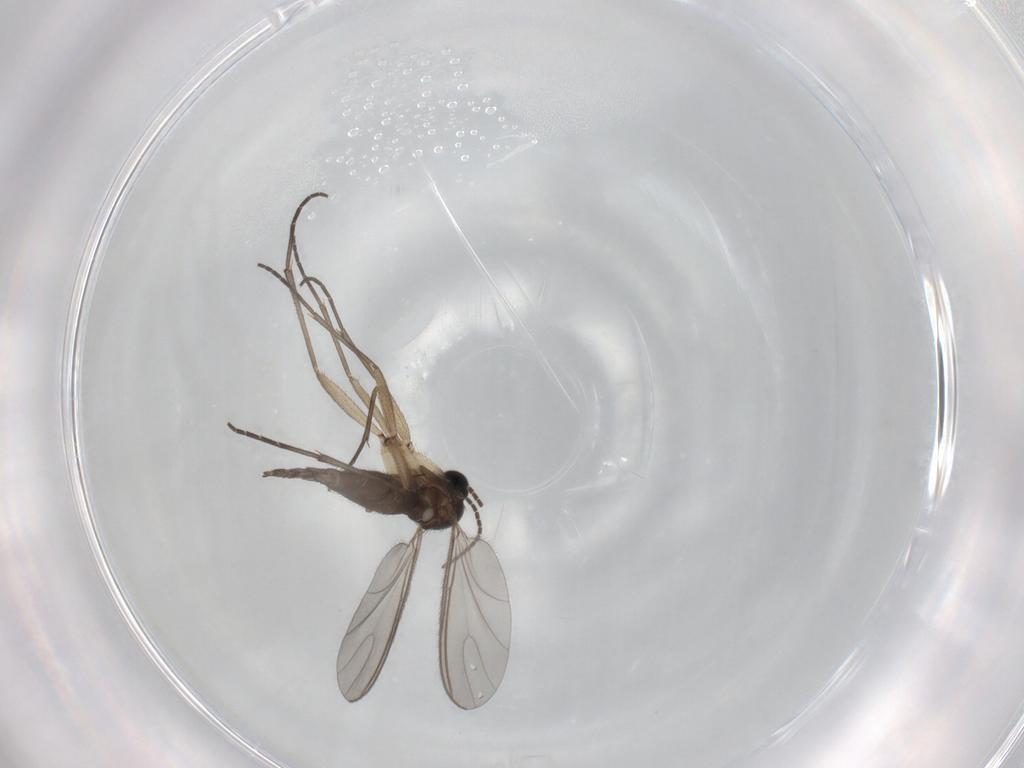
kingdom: Animalia
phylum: Arthropoda
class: Insecta
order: Diptera
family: Sciaridae
